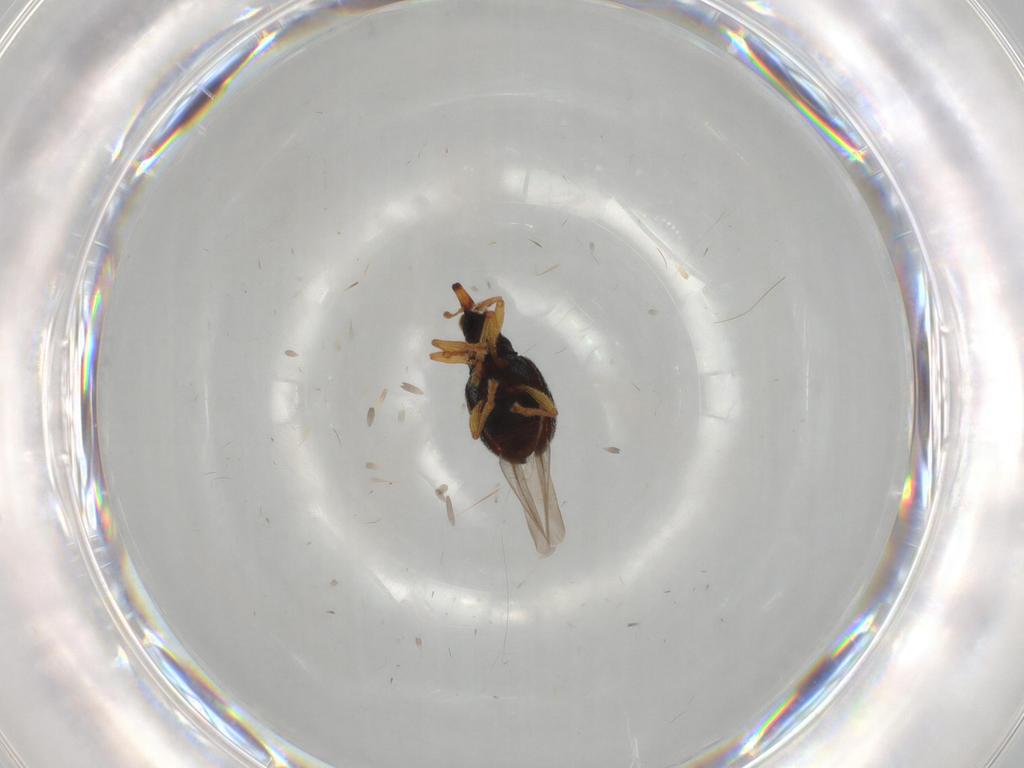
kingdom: Animalia
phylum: Arthropoda
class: Insecta
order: Coleoptera
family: Brentidae
